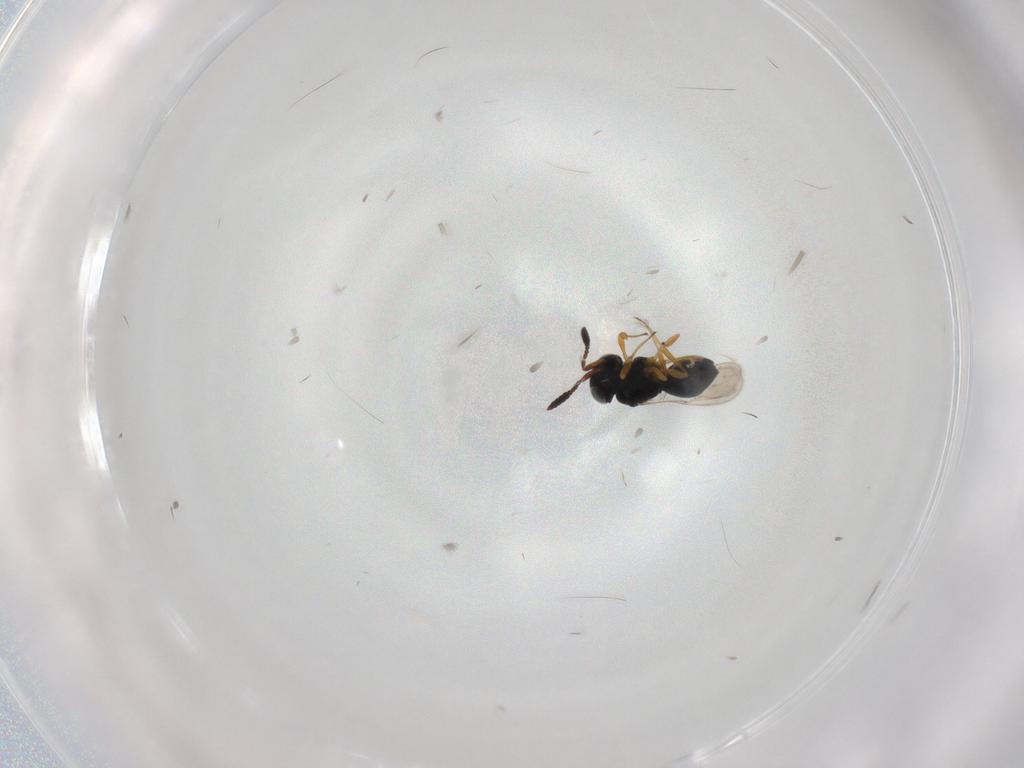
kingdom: Animalia
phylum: Arthropoda
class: Insecta
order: Hymenoptera
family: Scelionidae
